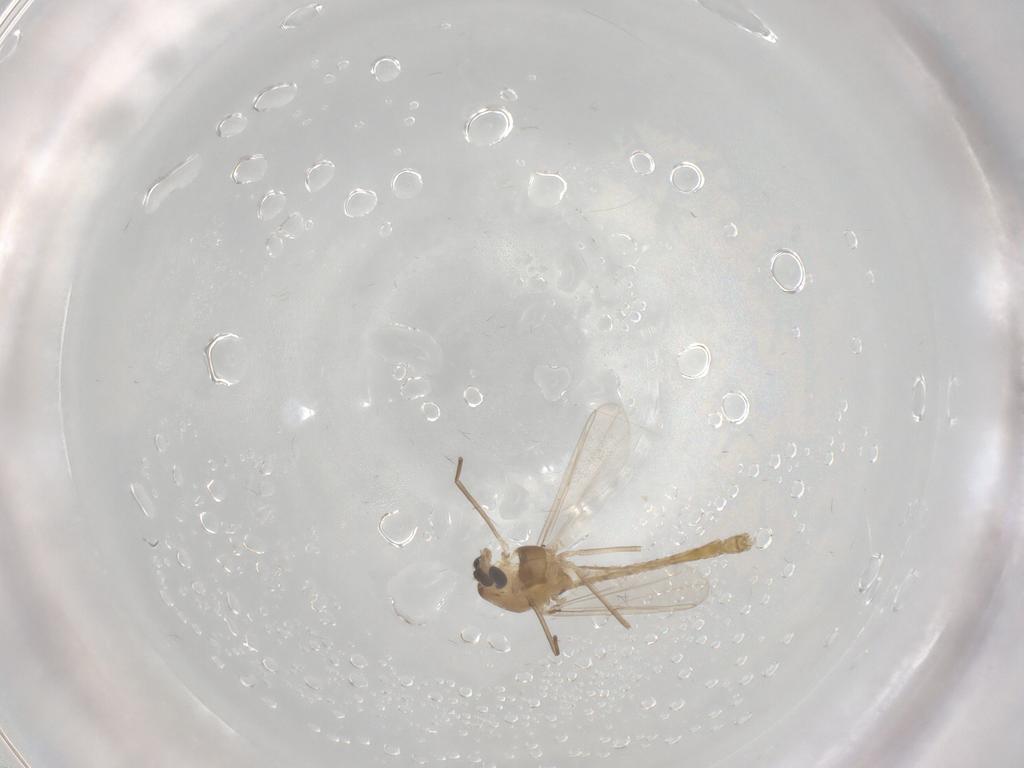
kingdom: Animalia
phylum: Arthropoda
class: Insecta
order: Diptera
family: Chironomidae
